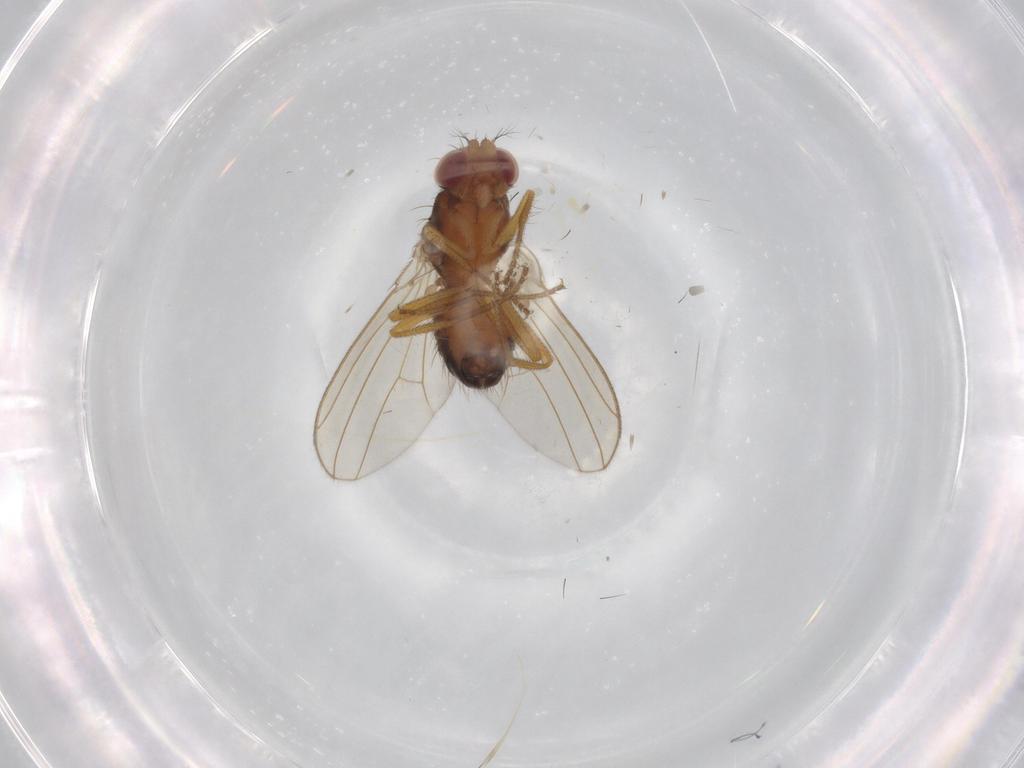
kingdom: Animalia
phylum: Arthropoda
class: Insecta
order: Diptera
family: Drosophilidae
